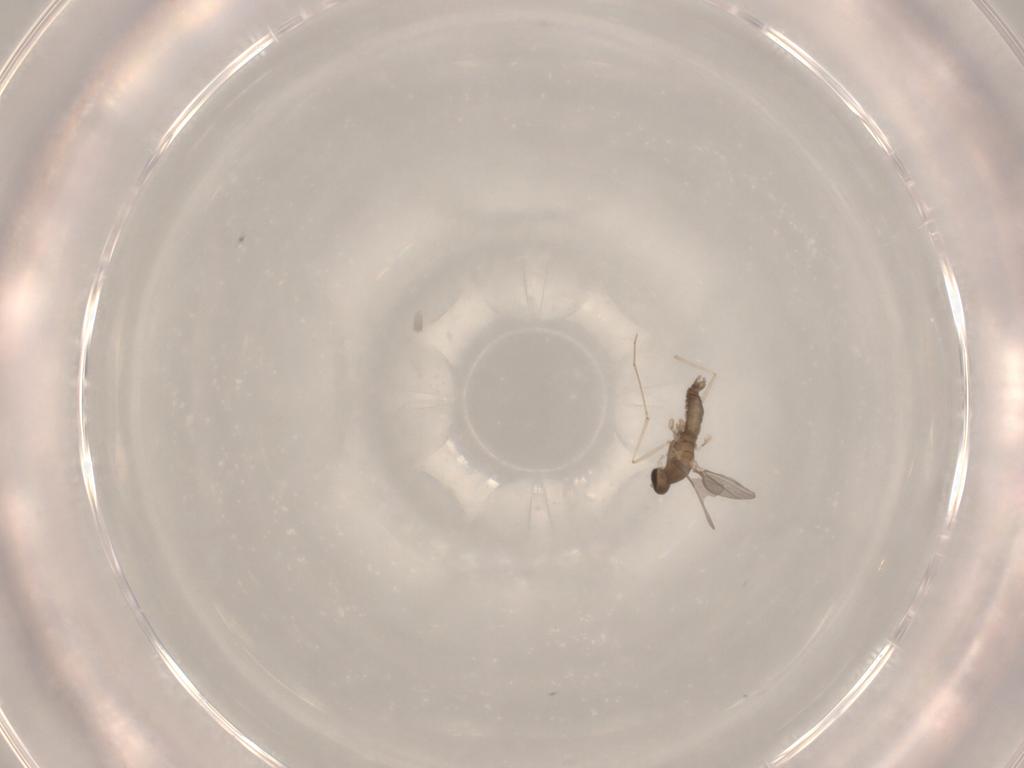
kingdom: Animalia
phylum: Arthropoda
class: Insecta
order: Diptera
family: Cecidomyiidae
